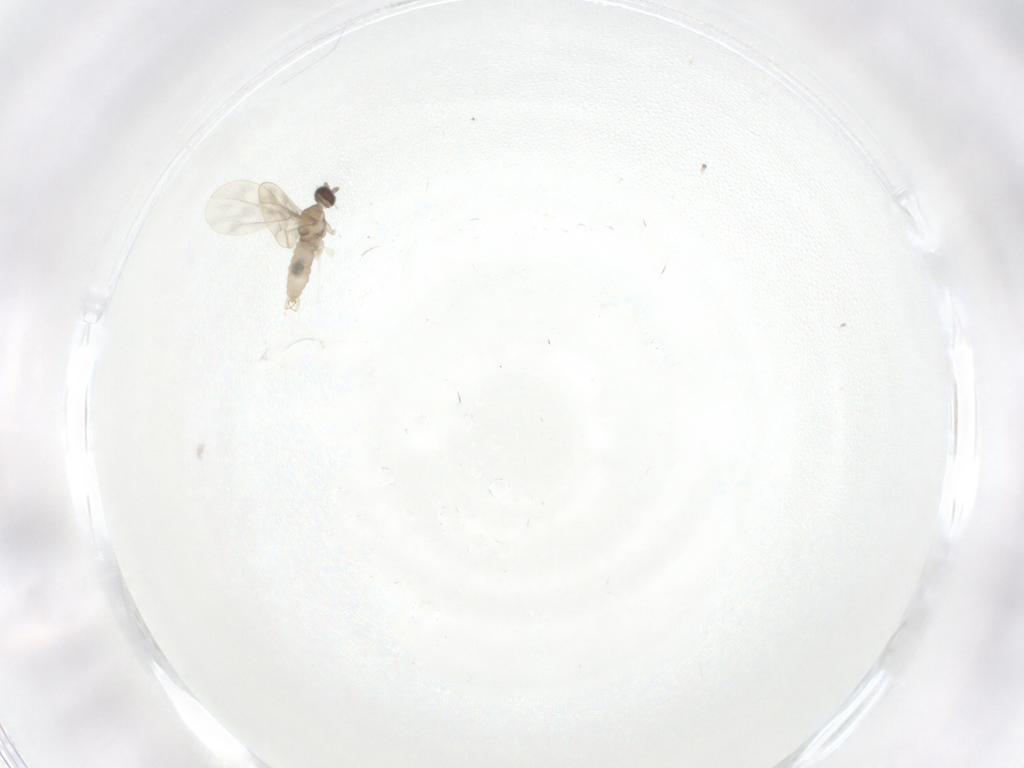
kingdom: Animalia
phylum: Arthropoda
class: Insecta
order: Diptera
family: Cecidomyiidae
